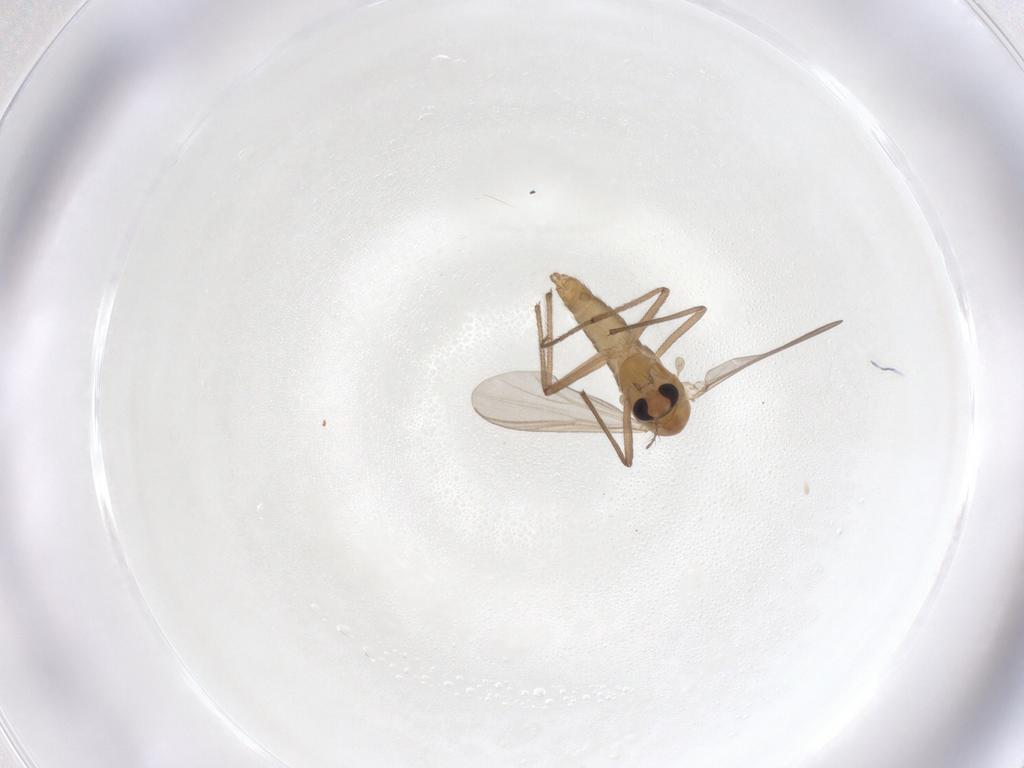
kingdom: Animalia
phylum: Arthropoda
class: Insecta
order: Diptera
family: Chironomidae
